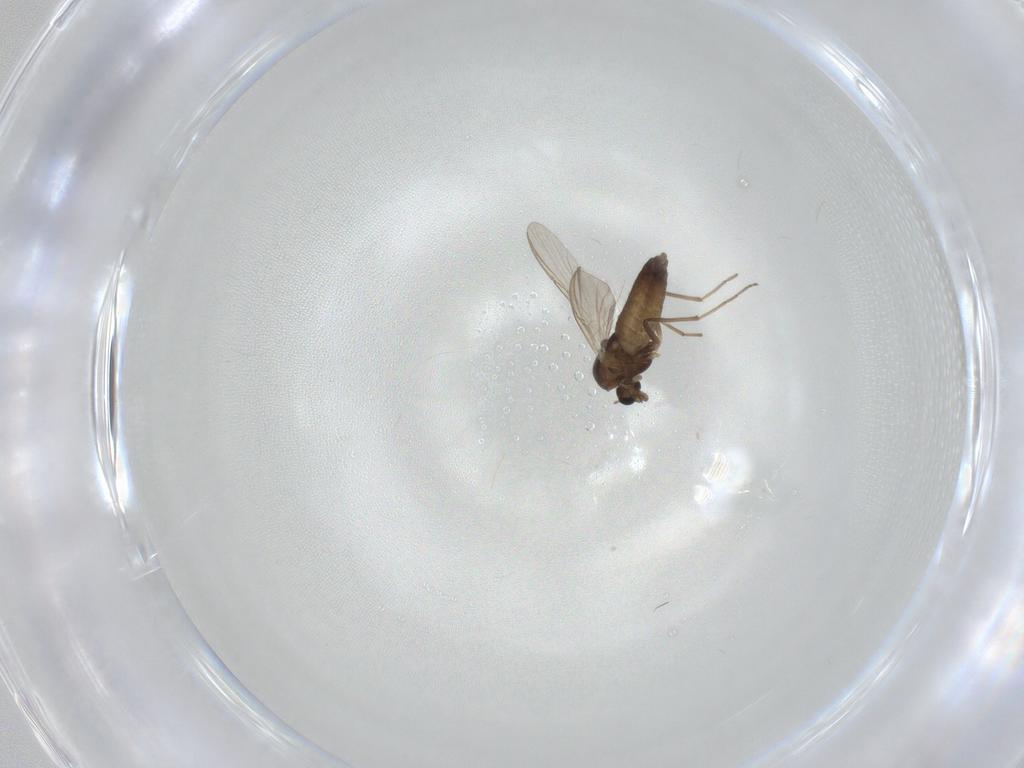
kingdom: Animalia
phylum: Arthropoda
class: Insecta
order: Diptera
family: Chironomidae
